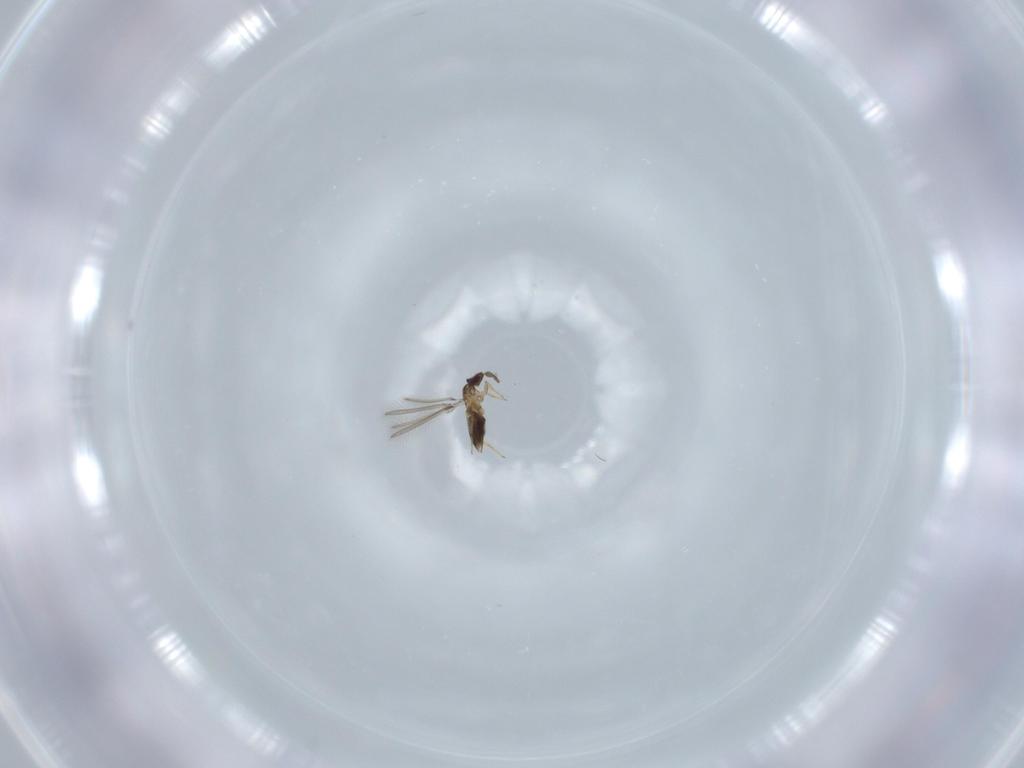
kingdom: Animalia
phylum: Arthropoda
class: Insecta
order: Hymenoptera
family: Mymaridae
